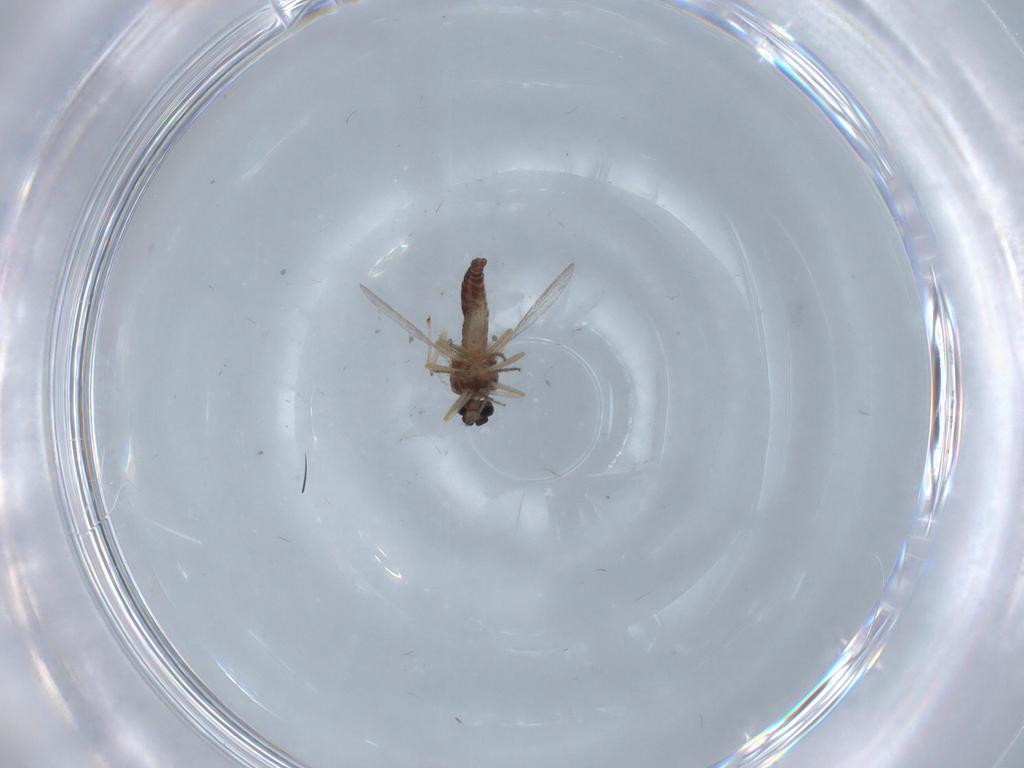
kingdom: Animalia
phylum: Arthropoda
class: Insecta
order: Diptera
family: Ceratopogonidae
